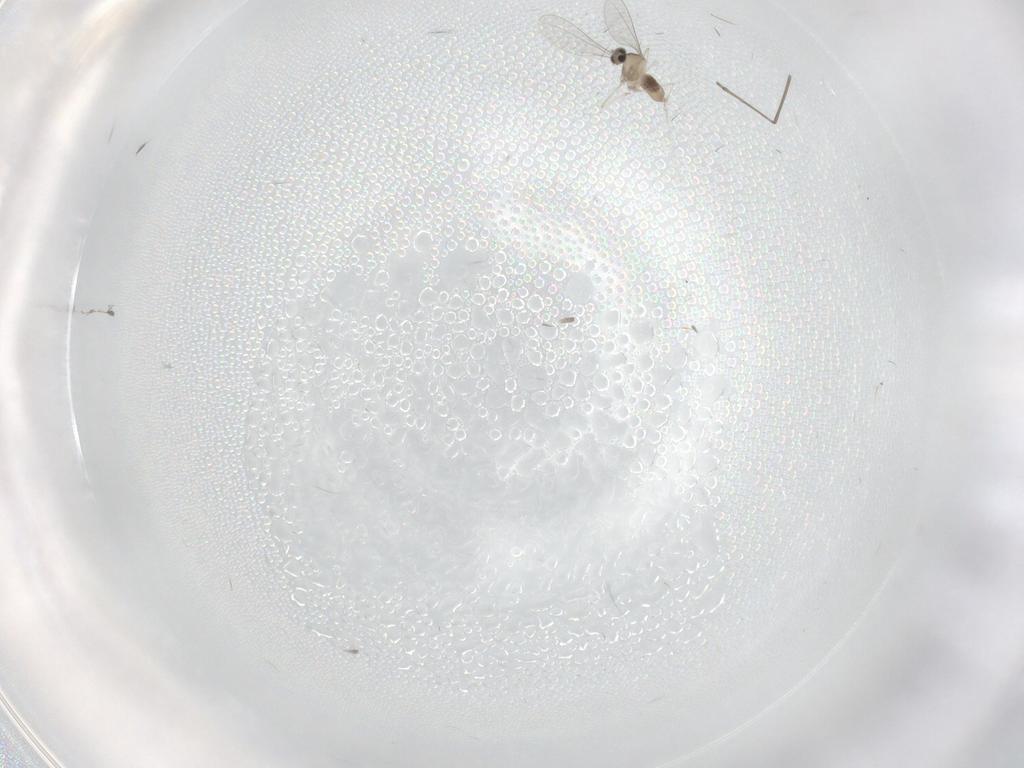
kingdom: Animalia
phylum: Arthropoda
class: Insecta
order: Diptera
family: Cecidomyiidae
